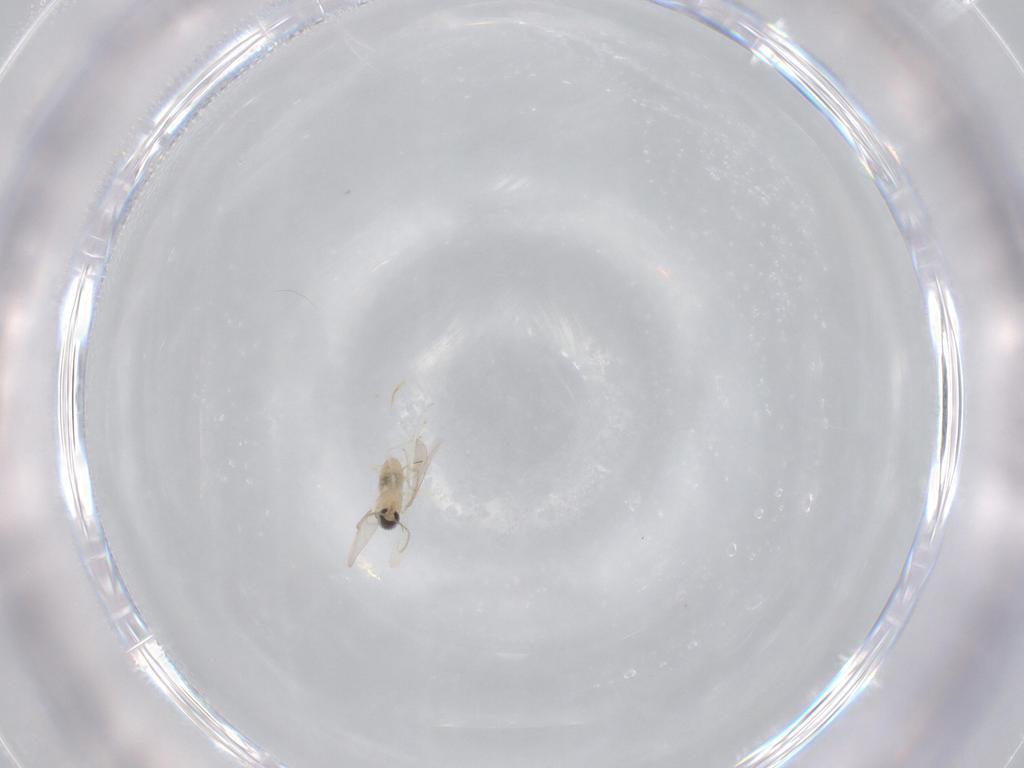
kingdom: Animalia
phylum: Arthropoda
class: Insecta
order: Diptera
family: Cecidomyiidae
